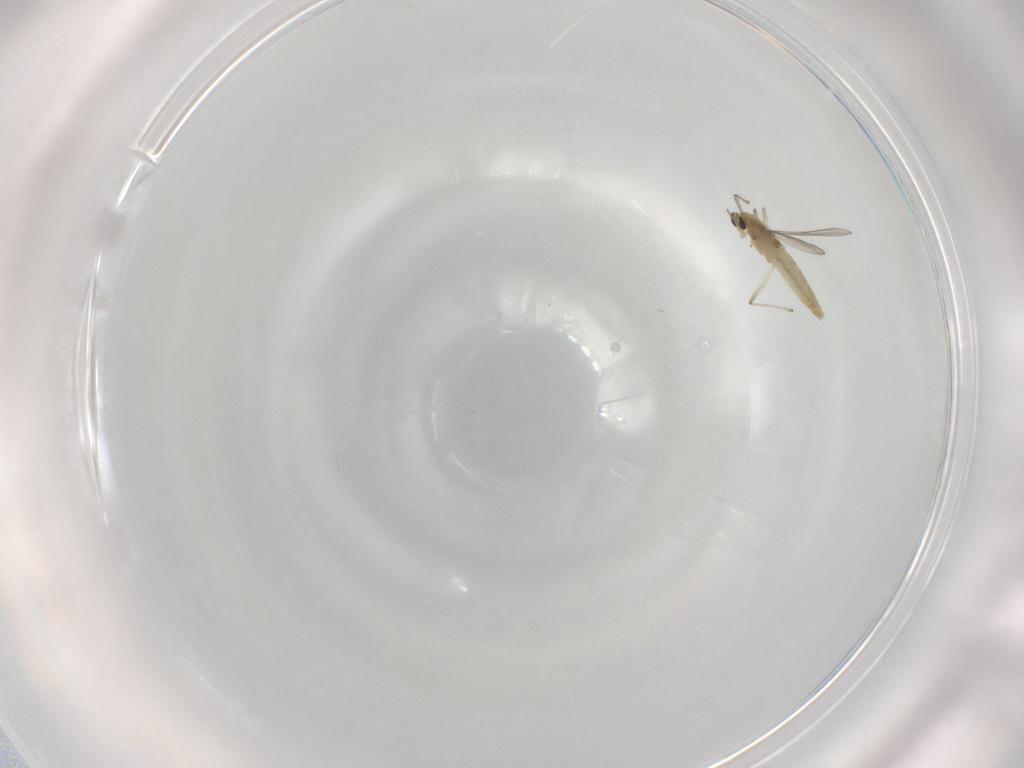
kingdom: Animalia
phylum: Arthropoda
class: Insecta
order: Diptera
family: Chironomidae
